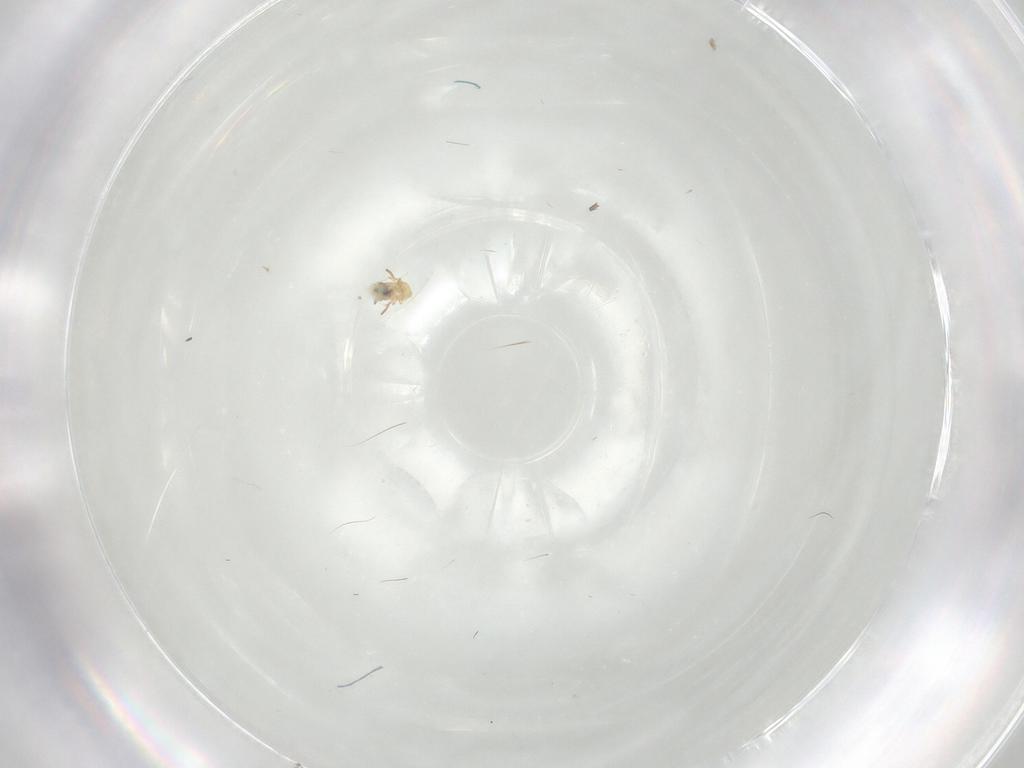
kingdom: Animalia
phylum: Arthropoda
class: Collembola
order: Symphypleona
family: Bourletiellidae
